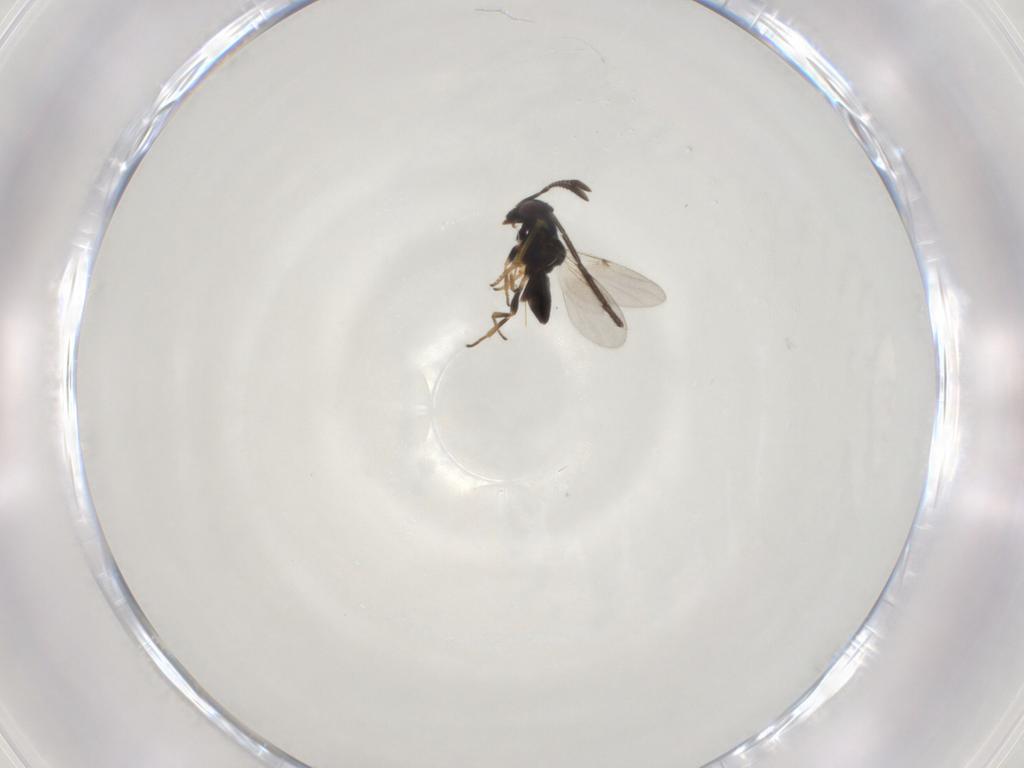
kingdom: Animalia
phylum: Arthropoda
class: Insecta
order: Hymenoptera
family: Encyrtidae
